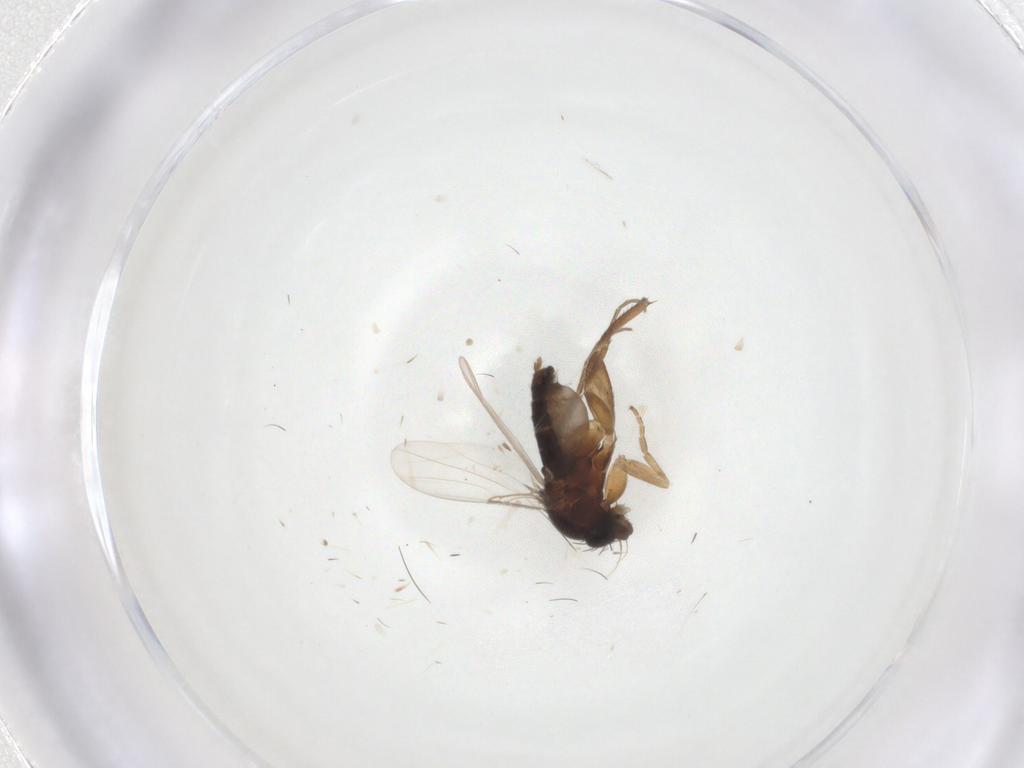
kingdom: Animalia
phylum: Arthropoda
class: Insecta
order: Diptera
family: Phoridae
